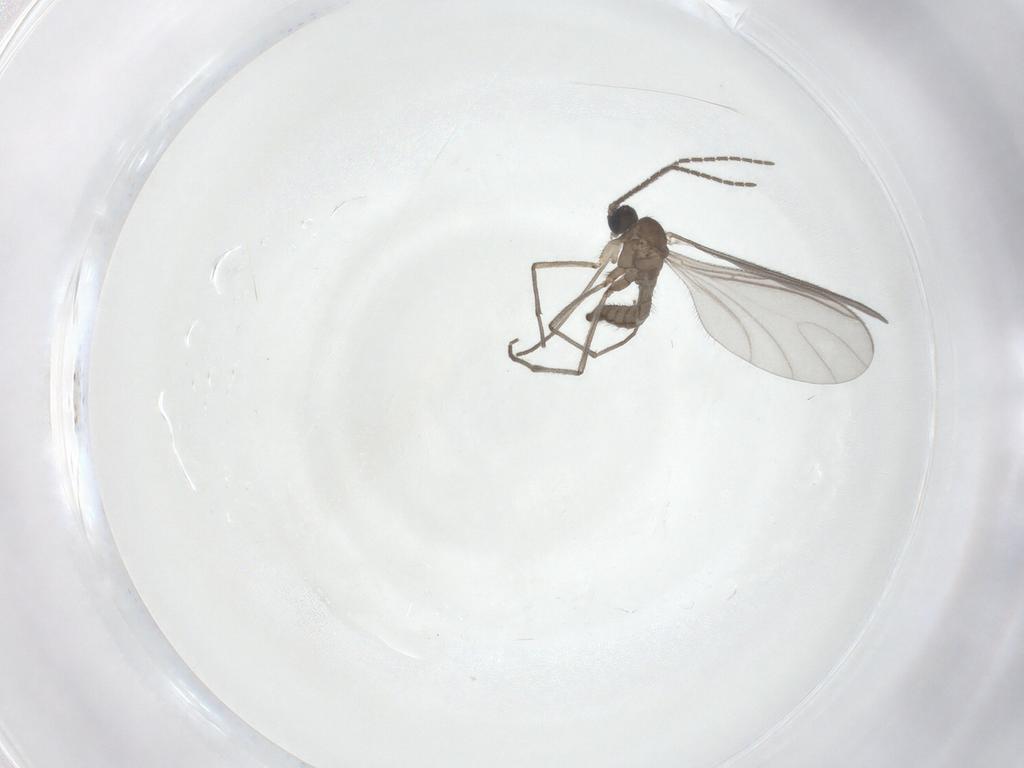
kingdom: Animalia
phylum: Arthropoda
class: Insecta
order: Diptera
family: Sciaridae
